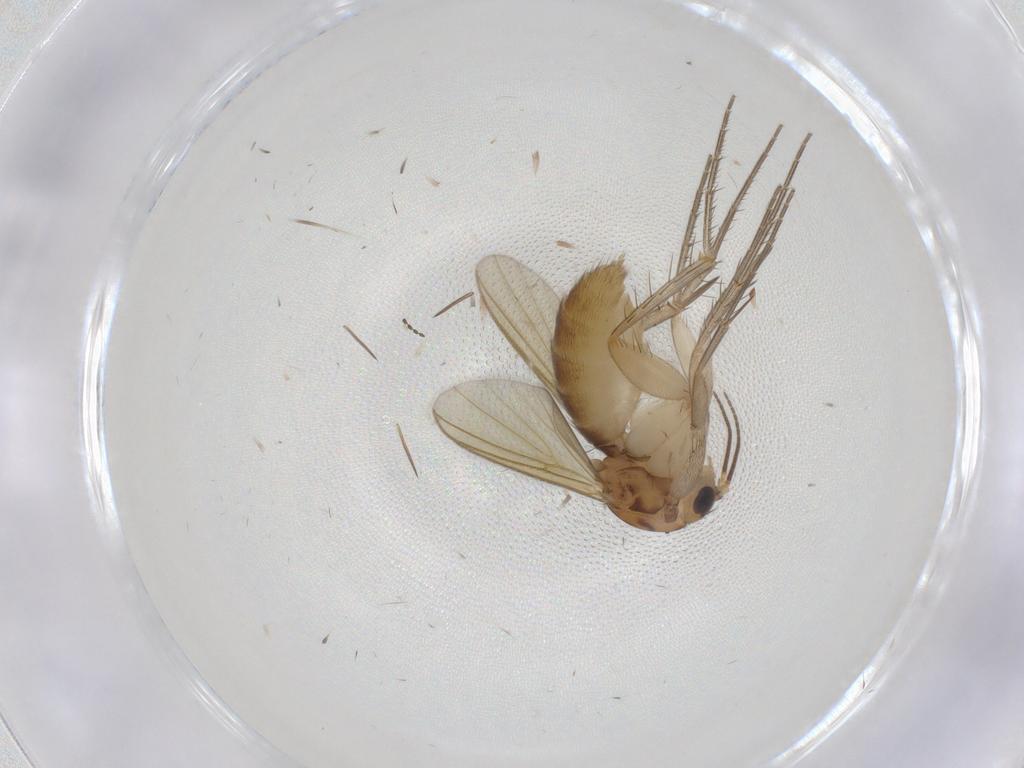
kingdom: Animalia
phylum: Arthropoda
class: Insecta
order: Diptera
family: Mycetophilidae
